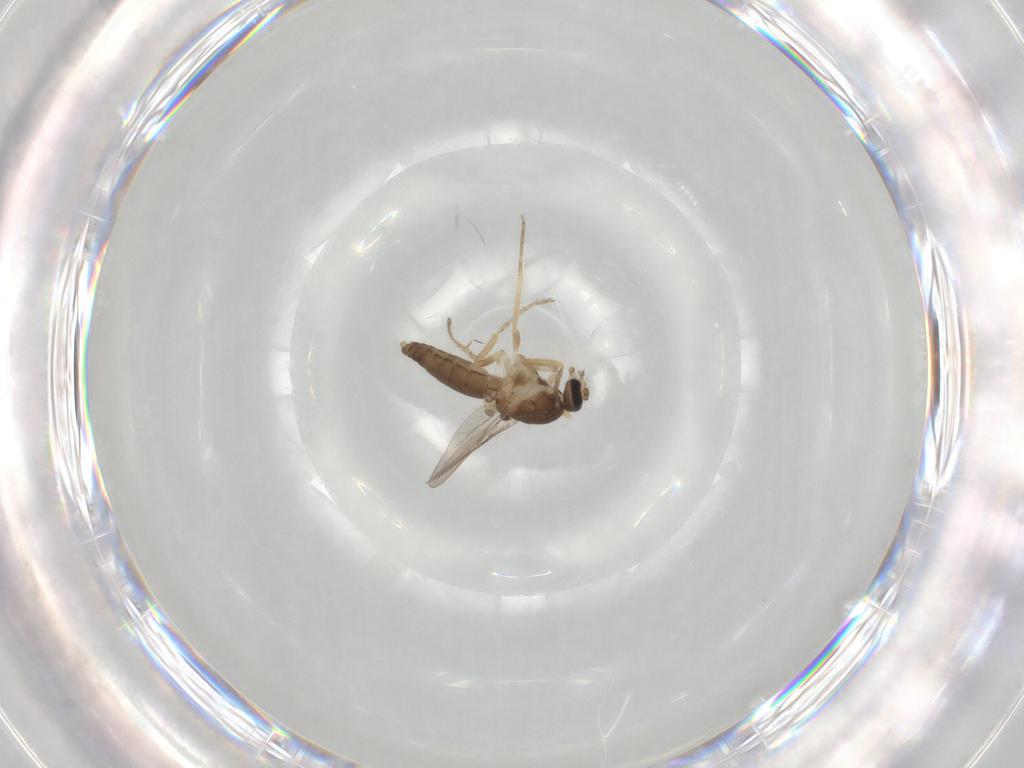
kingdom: Animalia
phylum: Arthropoda
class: Insecta
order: Diptera
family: Ceratopogonidae
